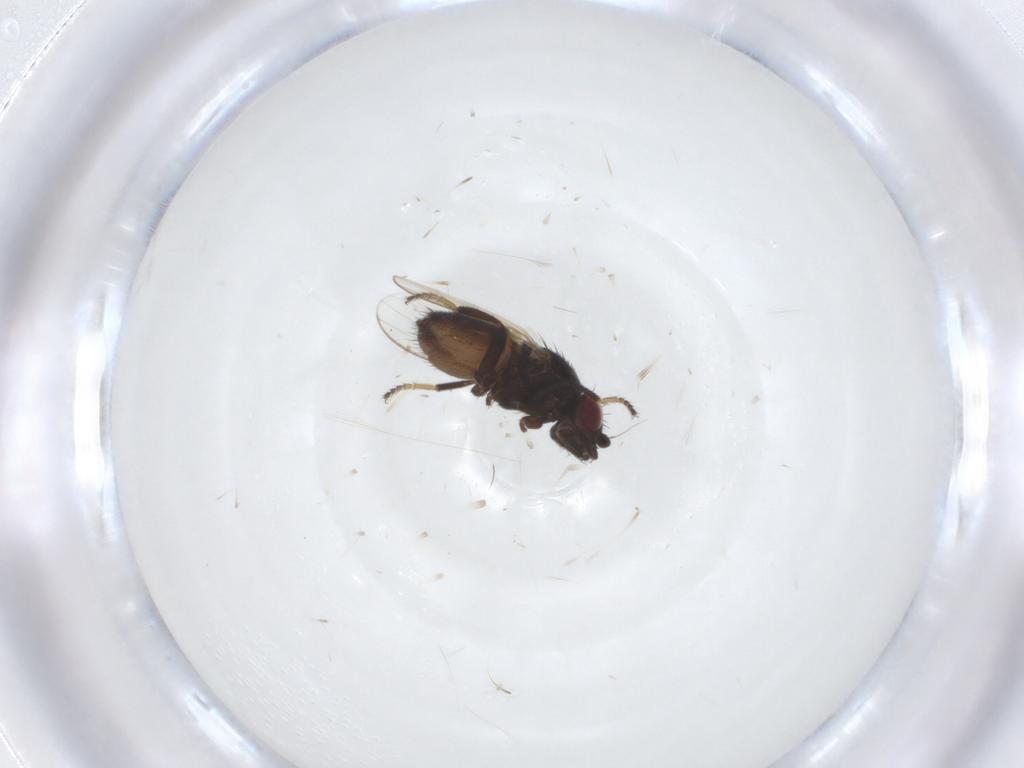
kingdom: Animalia
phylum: Arthropoda
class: Insecta
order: Diptera
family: Milichiidae
